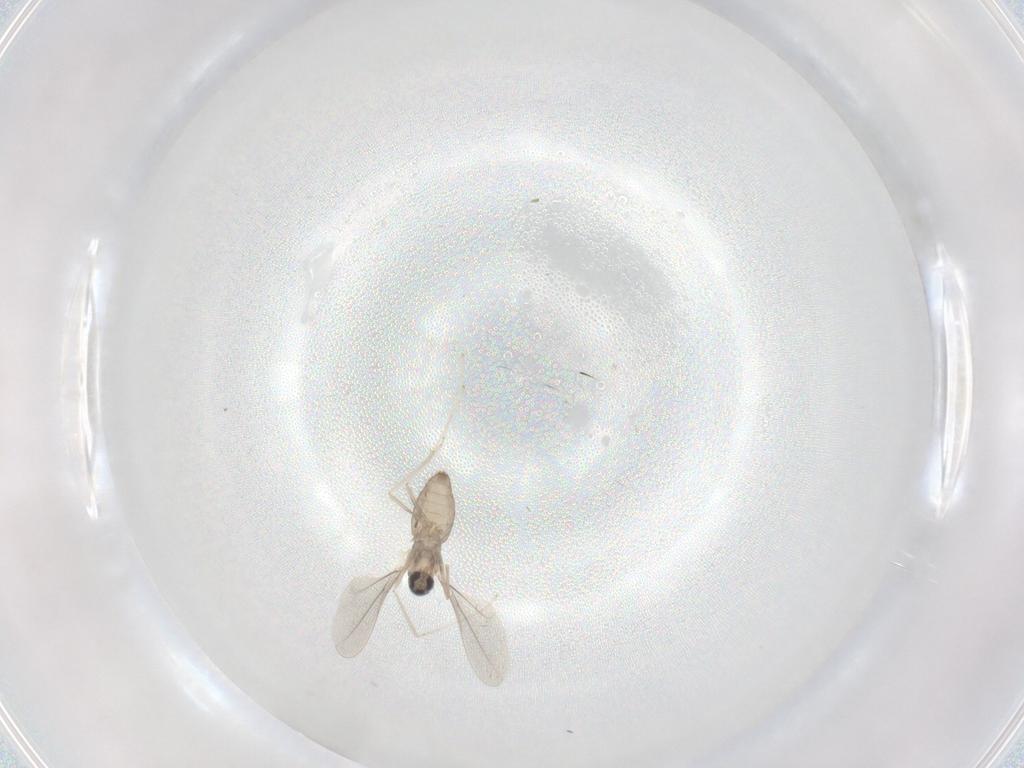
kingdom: Animalia
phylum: Arthropoda
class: Insecta
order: Diptera
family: Cecidomyiidae
